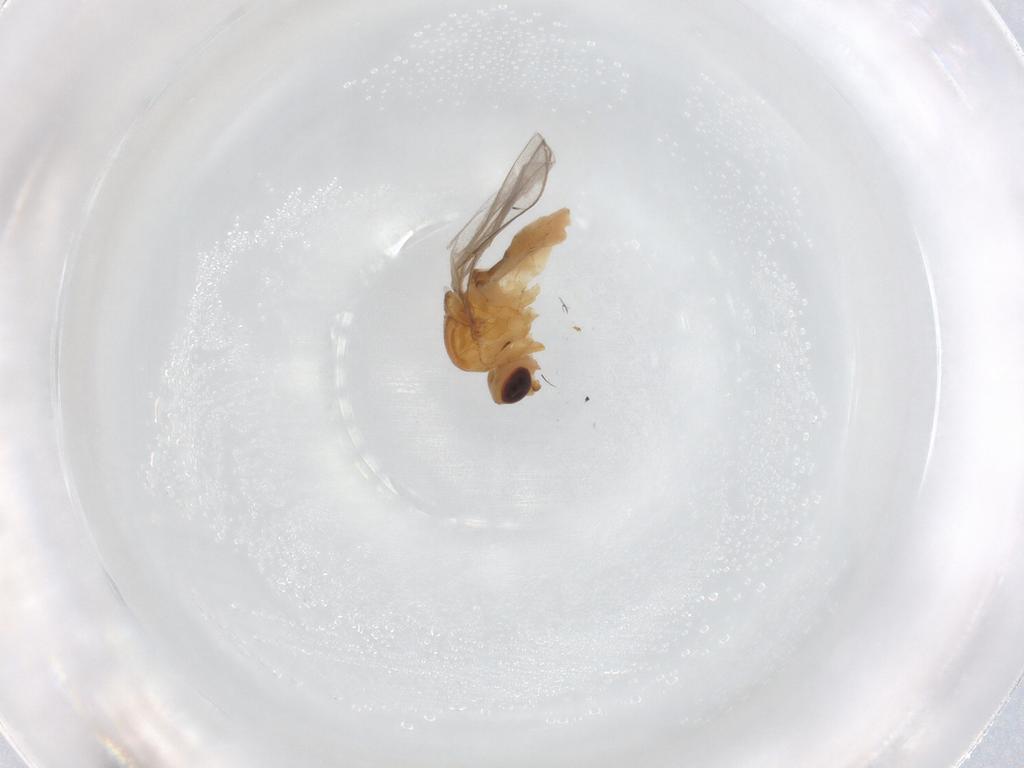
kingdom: Animalia
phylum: Arthropoda
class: Insecta
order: Diptera
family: Chloropidae
